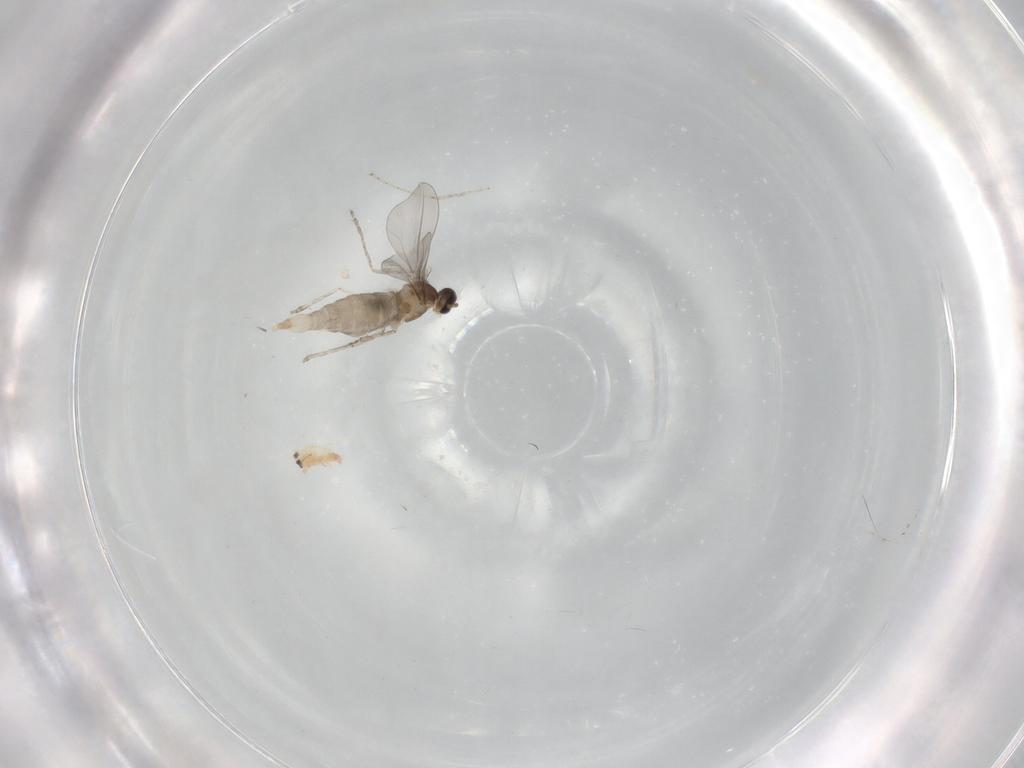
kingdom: Animalia
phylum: Arthropoda
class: Insecta
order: Diptera
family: Cecidomyiidae
